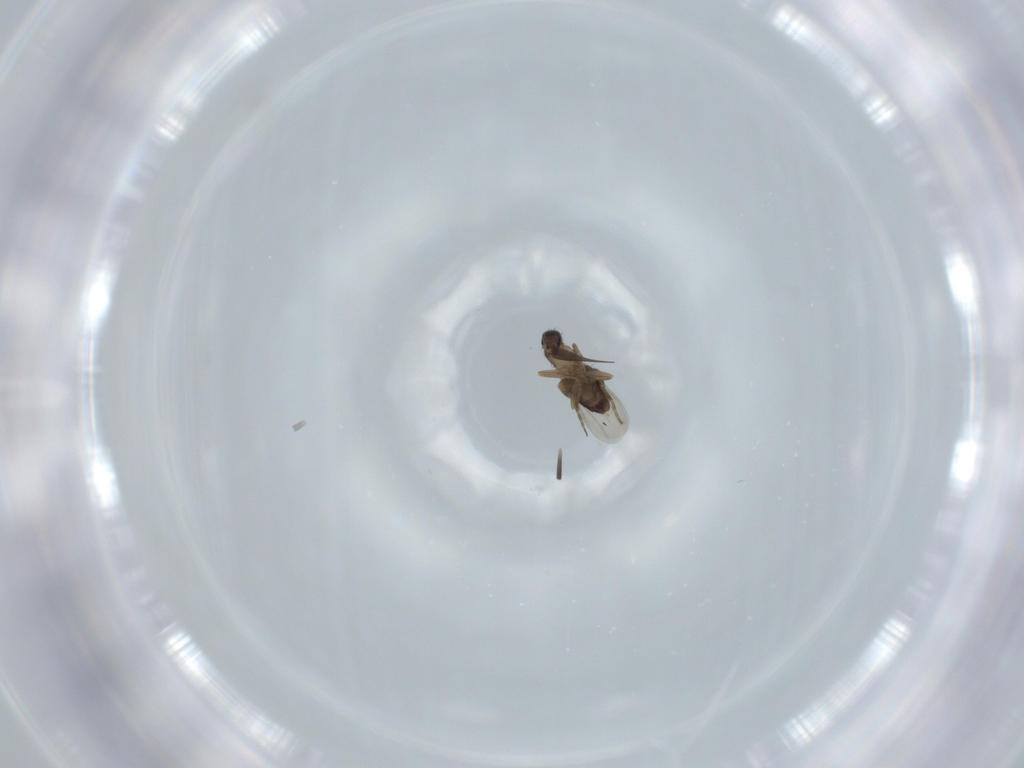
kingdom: Animalia
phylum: Arthropoda
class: Insecta
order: Diptera
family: Phoridae
